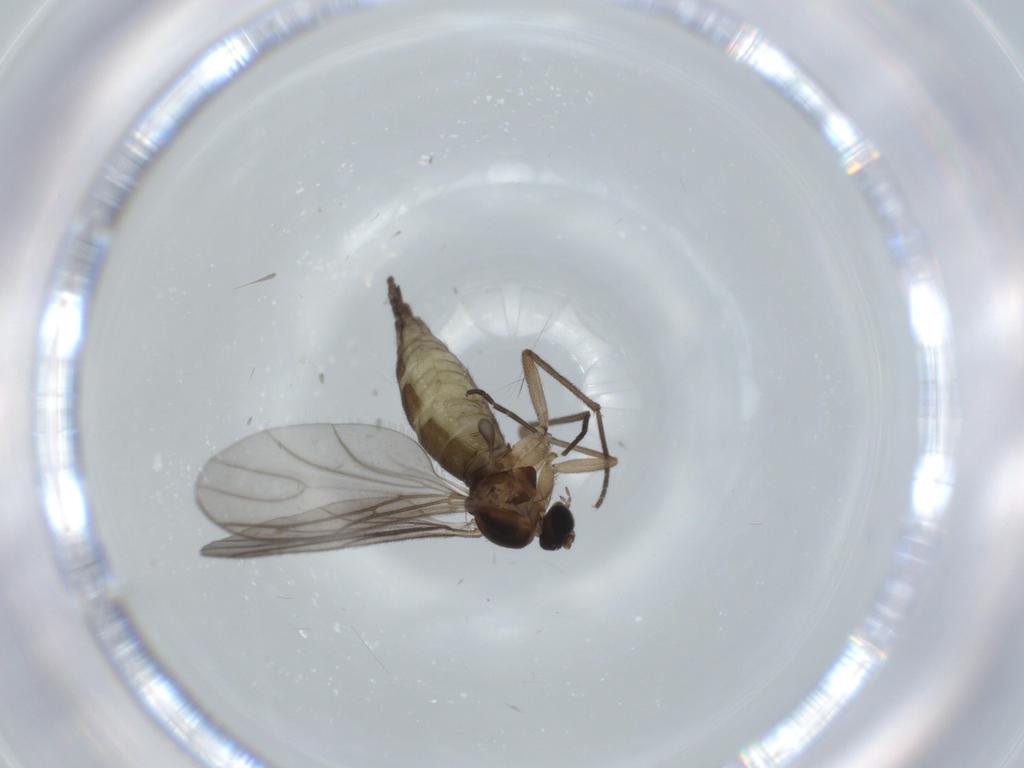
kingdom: Animalia
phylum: Arthropoda
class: Insecta
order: Diptera
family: Sciaridae
